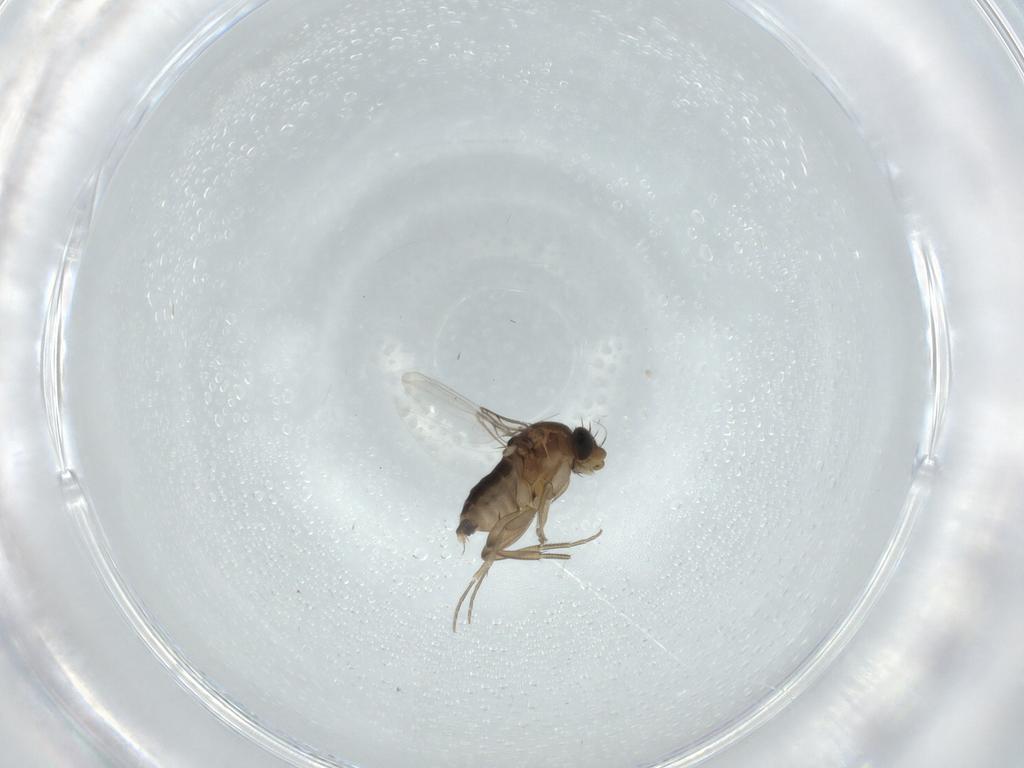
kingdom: Animalia
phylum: Arthropoda
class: Insecta
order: Diptera
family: Phoridae
